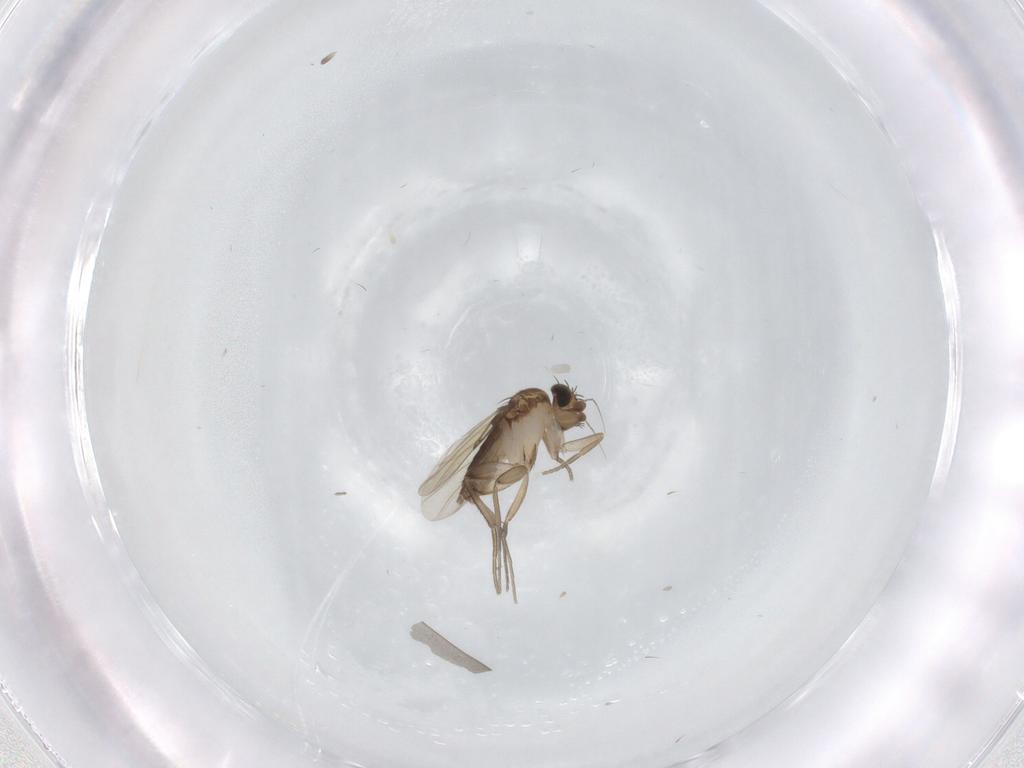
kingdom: Animalia
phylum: Arthropoda
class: Insecta
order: Diptera
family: Phoridae
